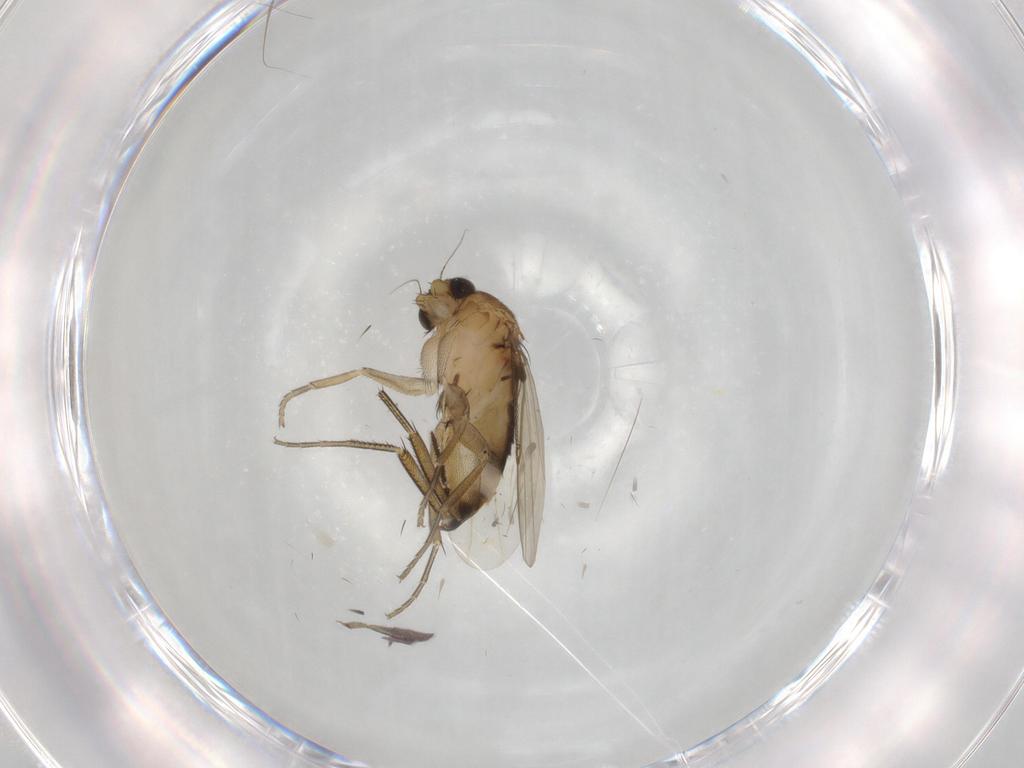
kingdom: Animalia
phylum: Arthropoda
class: Insecta
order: Diptera
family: Phoridae
